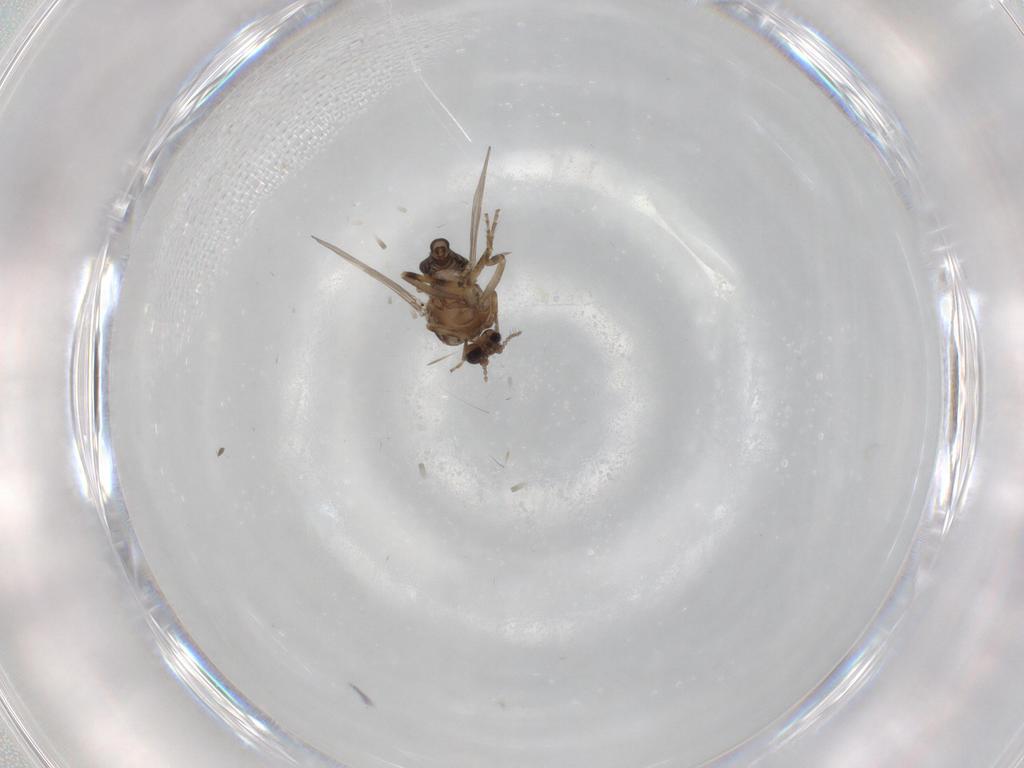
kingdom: Animalia
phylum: Arthropoda
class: Insecta
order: Diptera
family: Ceratopogonidae
